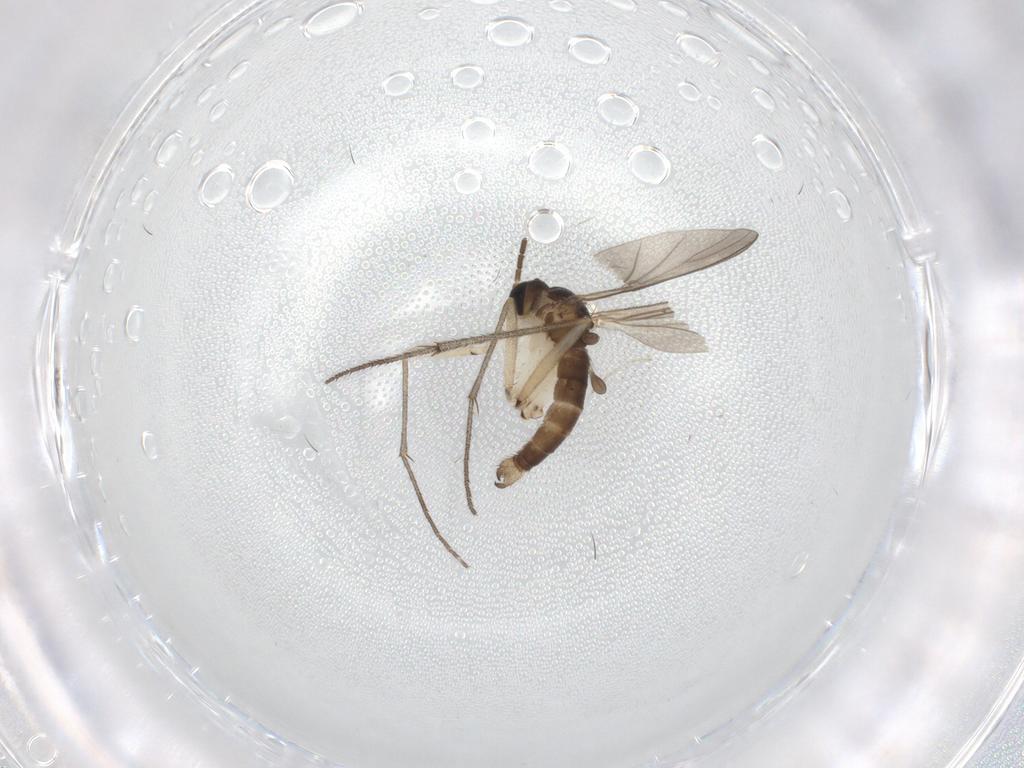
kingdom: Animalia
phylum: Arthropoda
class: Insecta
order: Diptera
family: Sciaridae
